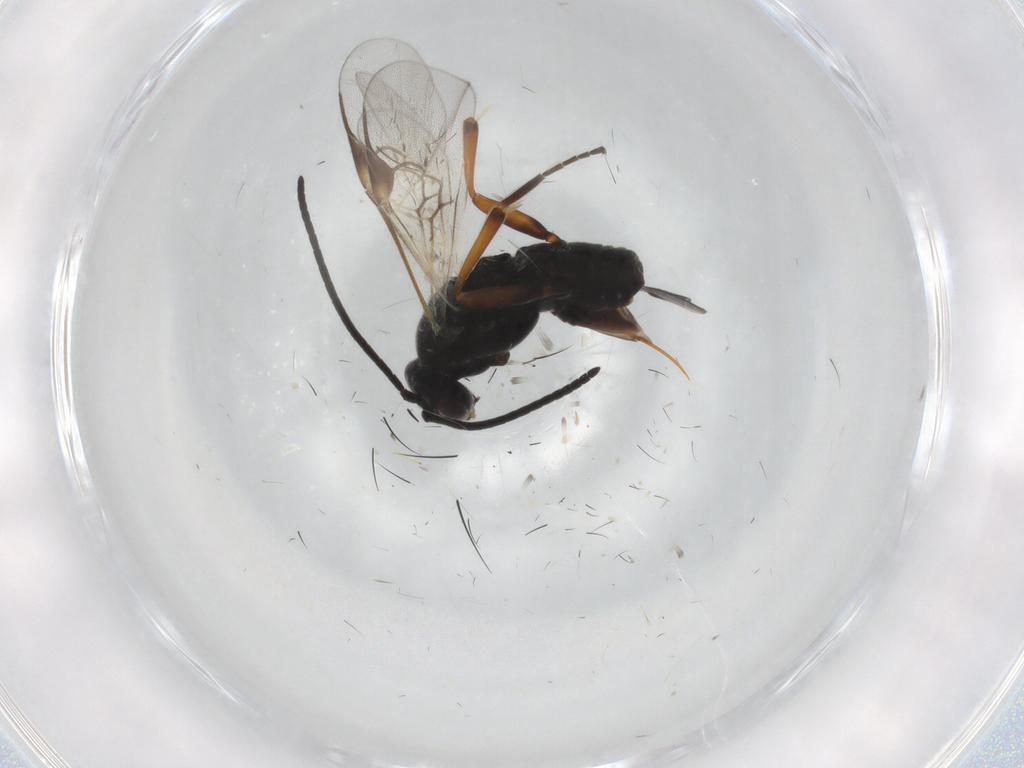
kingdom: Animalia
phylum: Arthropoda
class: Insecta
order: Hymenoptera
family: Braconidae
